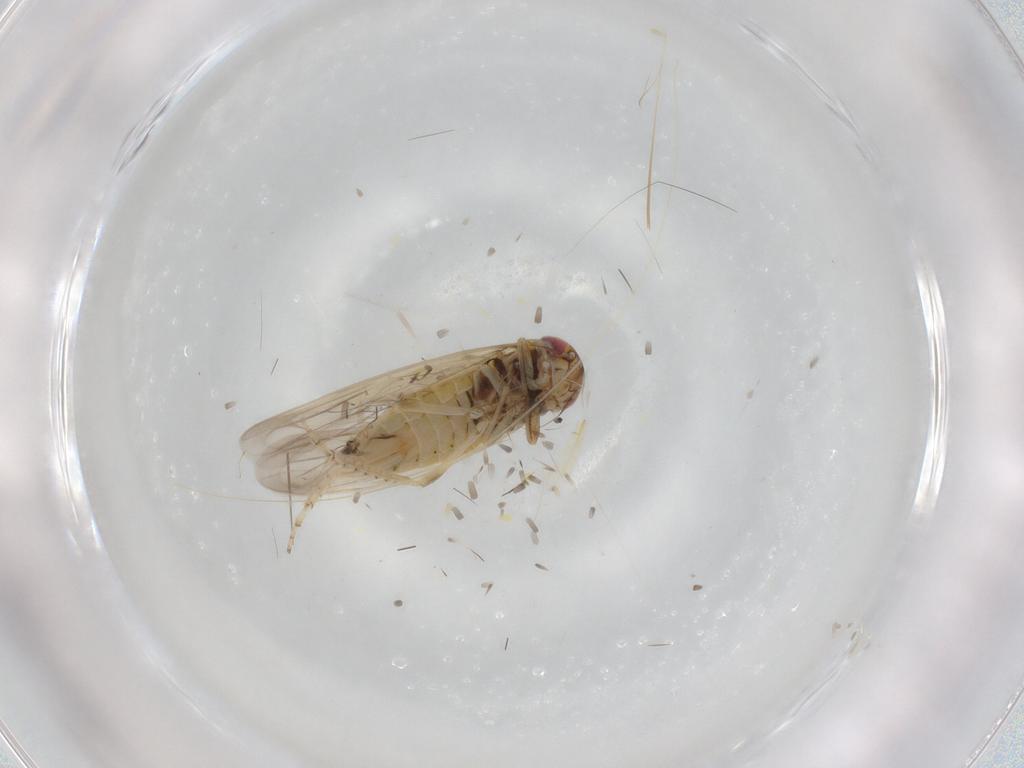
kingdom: Animalia
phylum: Arthropoda
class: Insecta
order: Hemiptera
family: Cicadellidae
